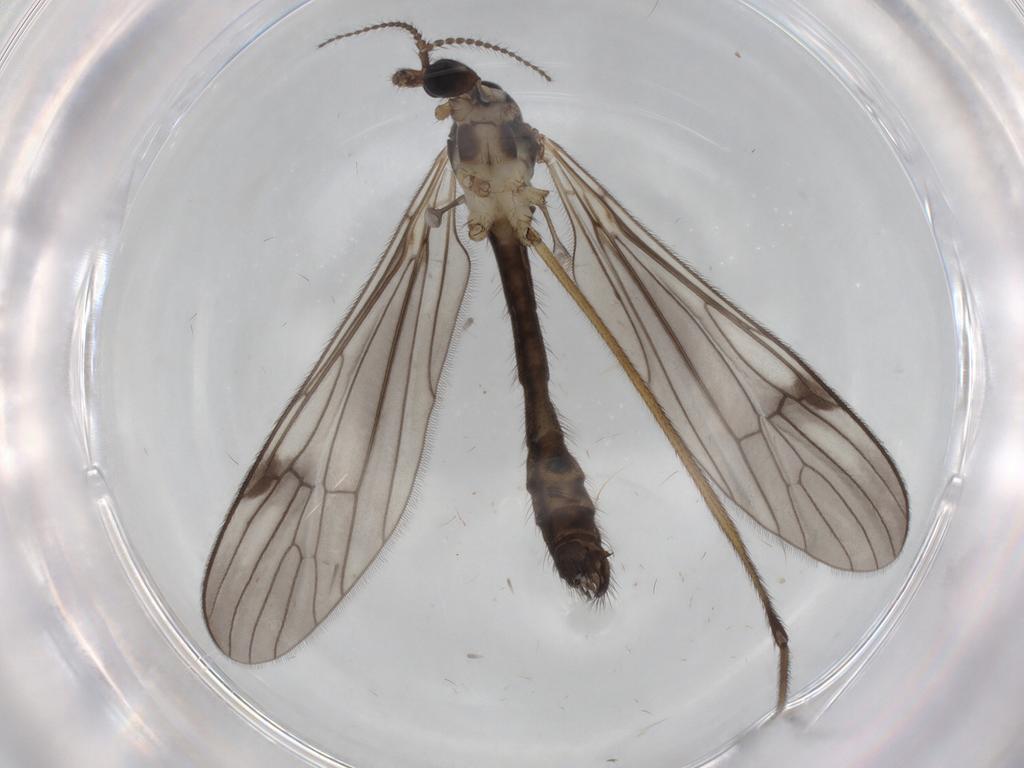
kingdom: Animalia
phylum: Arthropoda
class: Insecta
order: Diptera
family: Limoniidae
